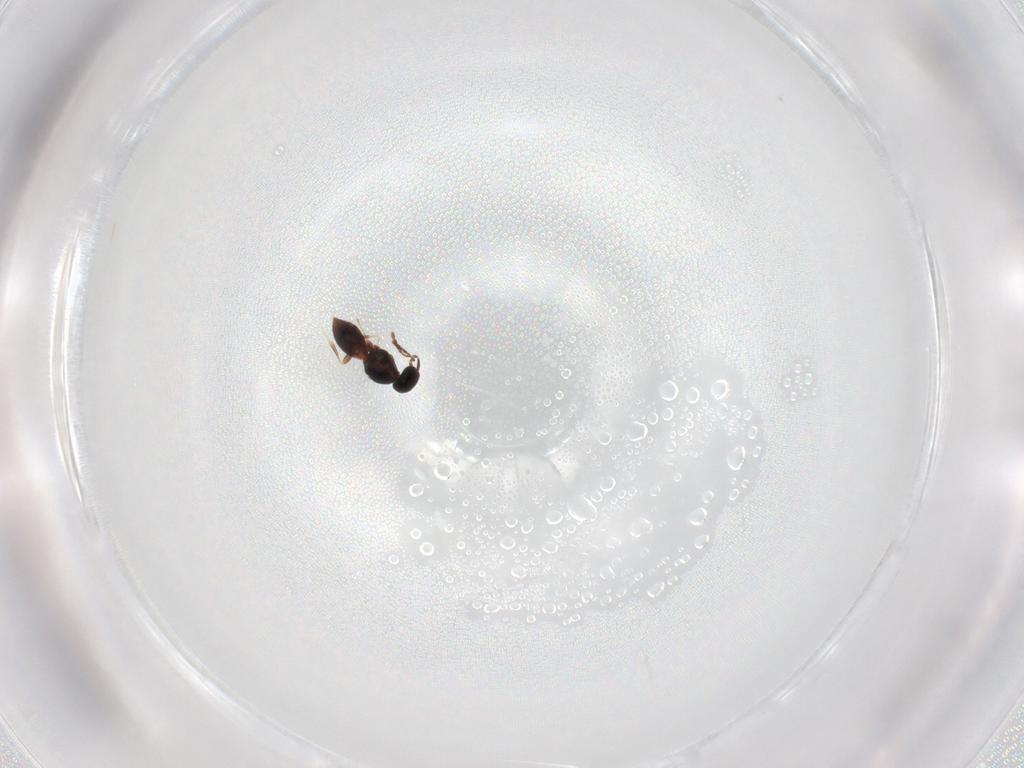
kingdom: Animalia
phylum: Arthropoda
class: Insecta
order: Hymenoptera
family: Platygastridae
